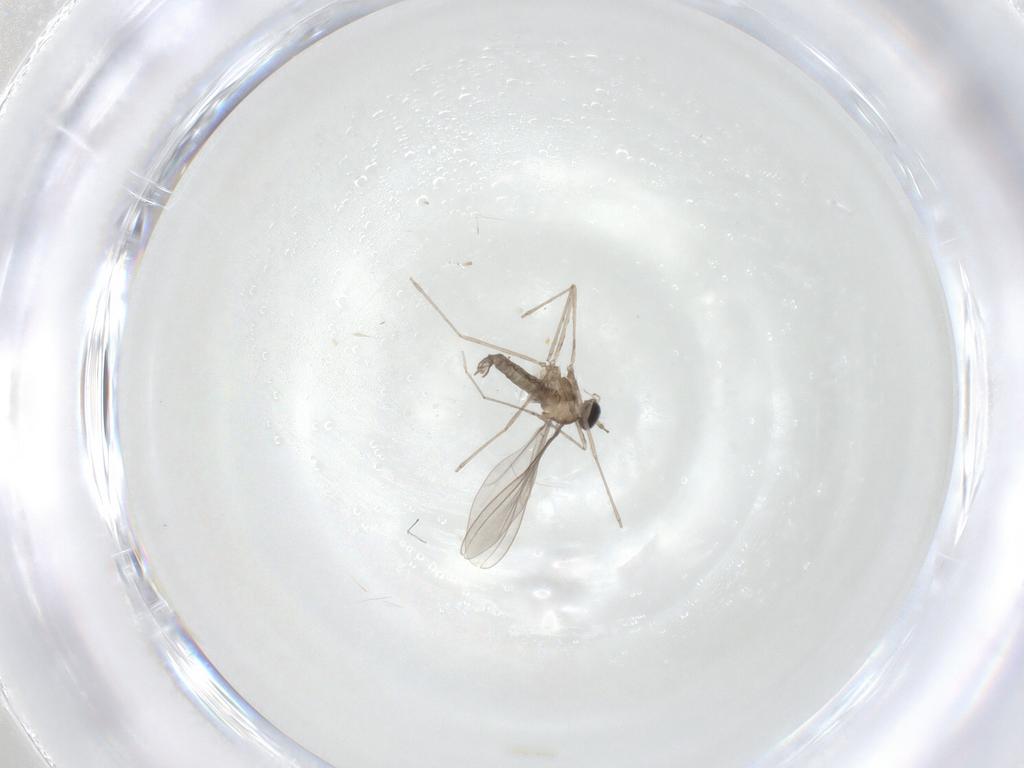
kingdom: Animalia
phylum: Arthropoda
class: Insecta
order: Diptera
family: Cecidomyiidae
